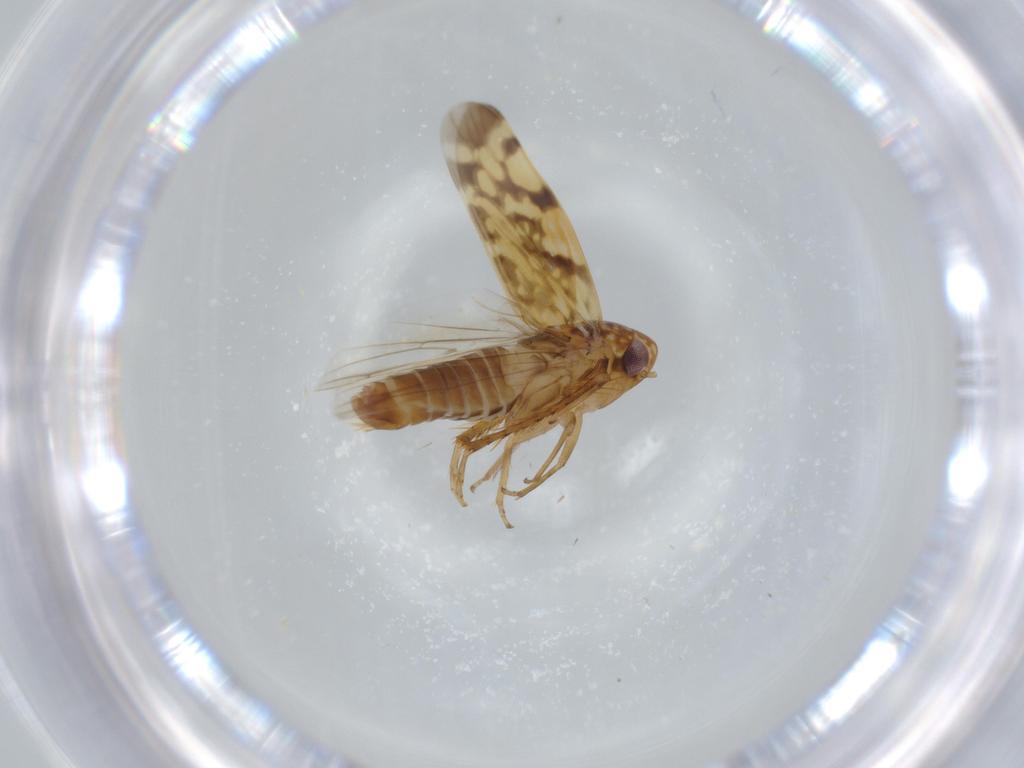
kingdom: Animalia
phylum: Arthropoda
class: Insecta
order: Hemiptera
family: Cicadellidae
